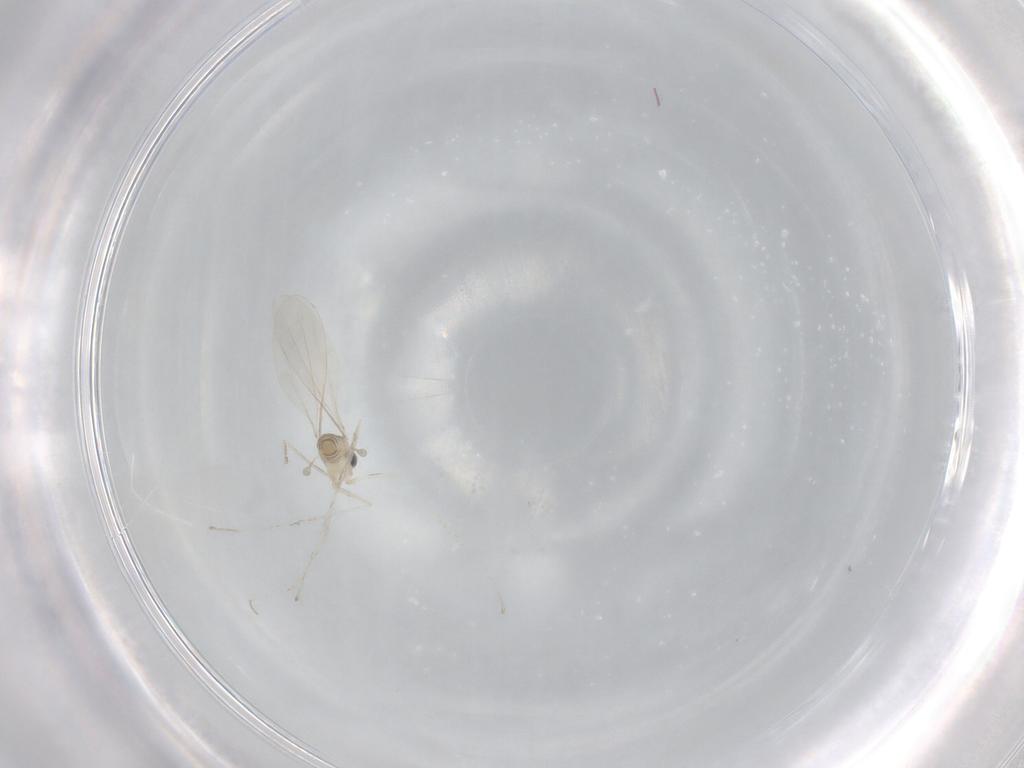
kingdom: Animalia
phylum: Arthropoda
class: Insecta
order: Diptera
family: Cecidomyiidae
